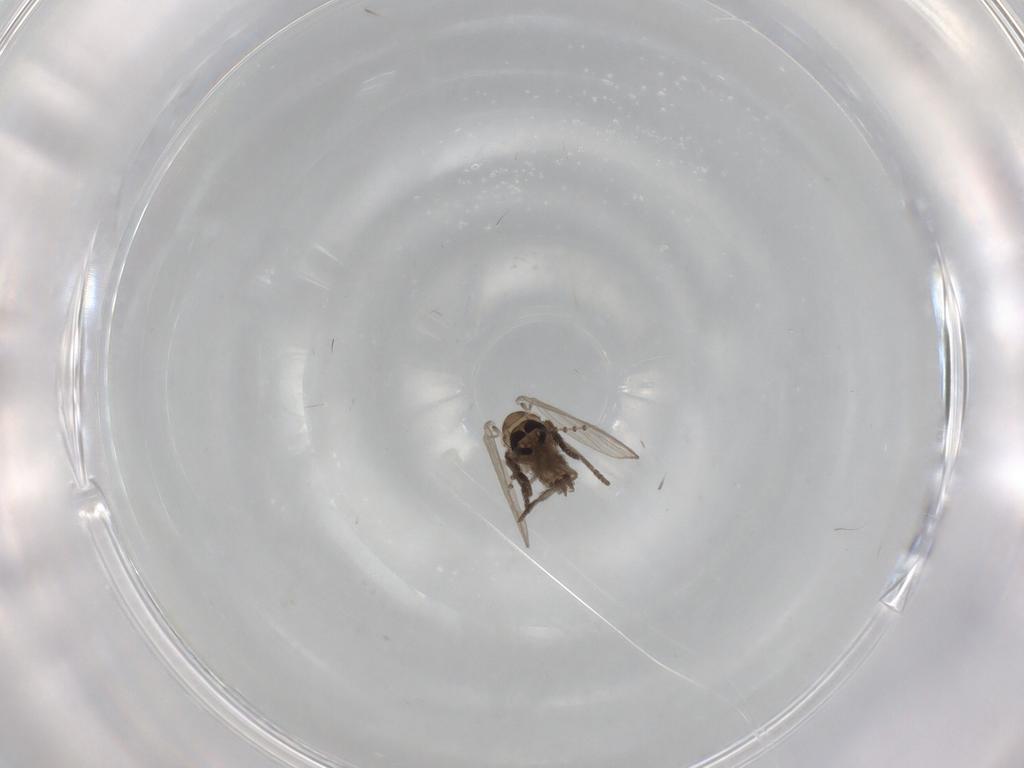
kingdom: Animalia
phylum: Arthropoda
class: Insecta
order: Diptera
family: Psychodidae
